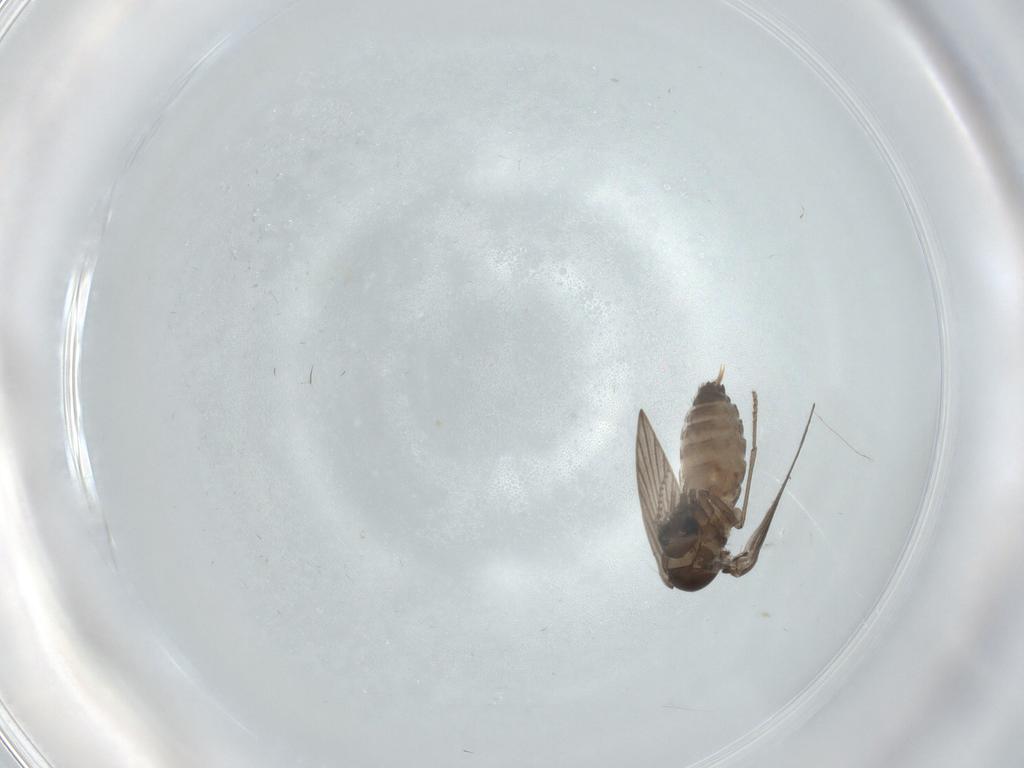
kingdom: Animalia
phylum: Arthropoda
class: Insecta
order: Diptera
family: Psychodidae
